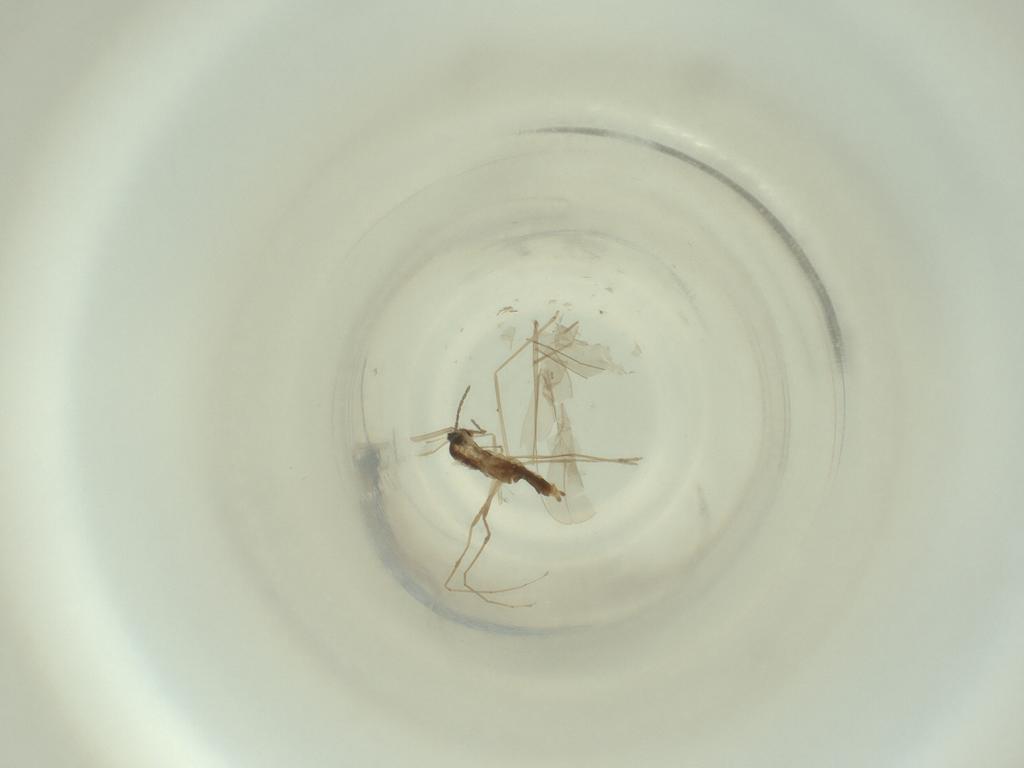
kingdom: Animalia
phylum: Arthropoda
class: Insecta
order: Diptera
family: Cecidomyiidae
